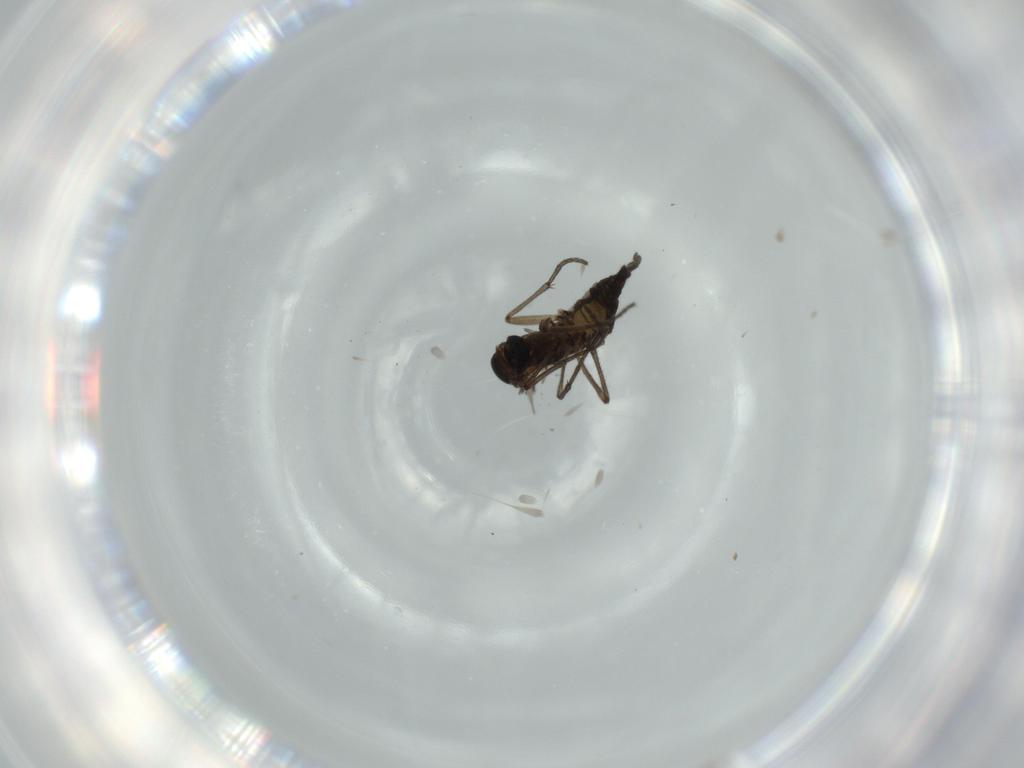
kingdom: Animalia
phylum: Arthropoda
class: Insecta
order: Diptera
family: Sciaridae
